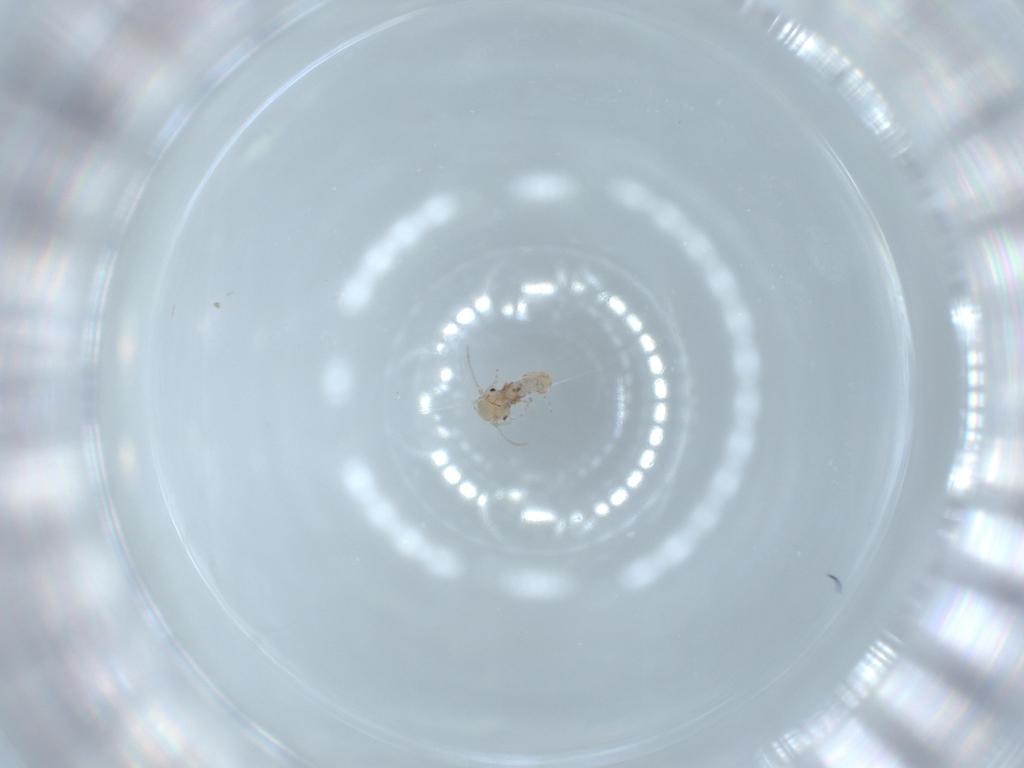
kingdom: Animalia
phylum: Arthropoda
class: Insecta
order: Psocodea
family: Lachesillidae
